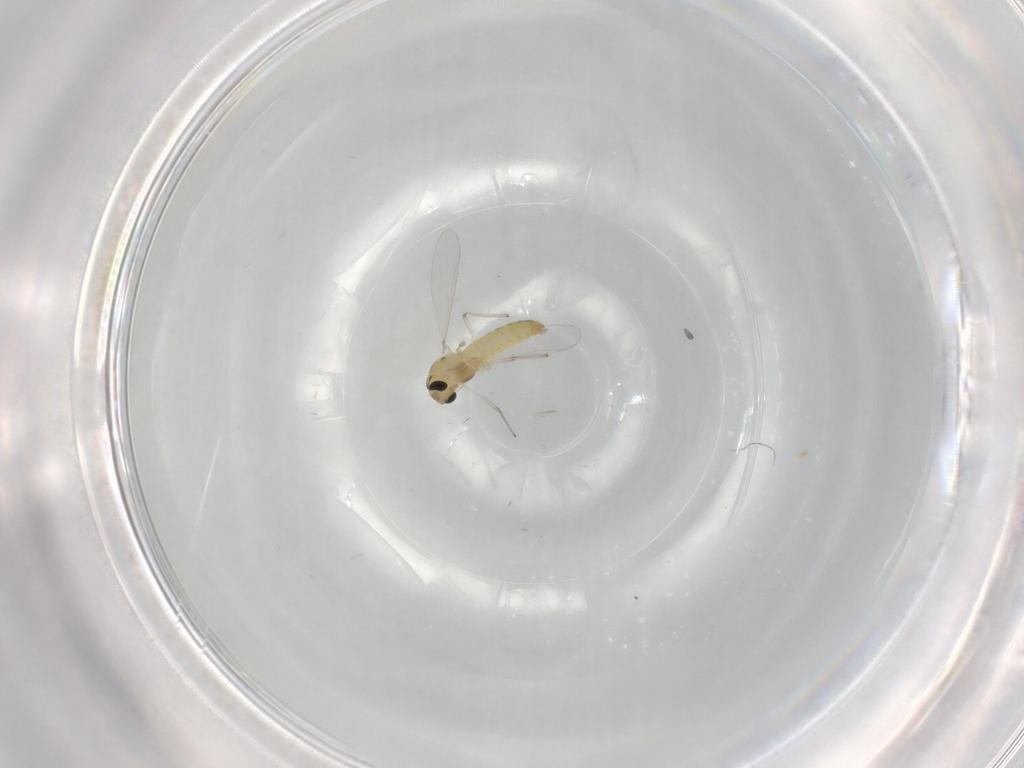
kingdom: Animalia
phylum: Arthropoda
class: Insecta
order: Diptera
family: Chironomidae
